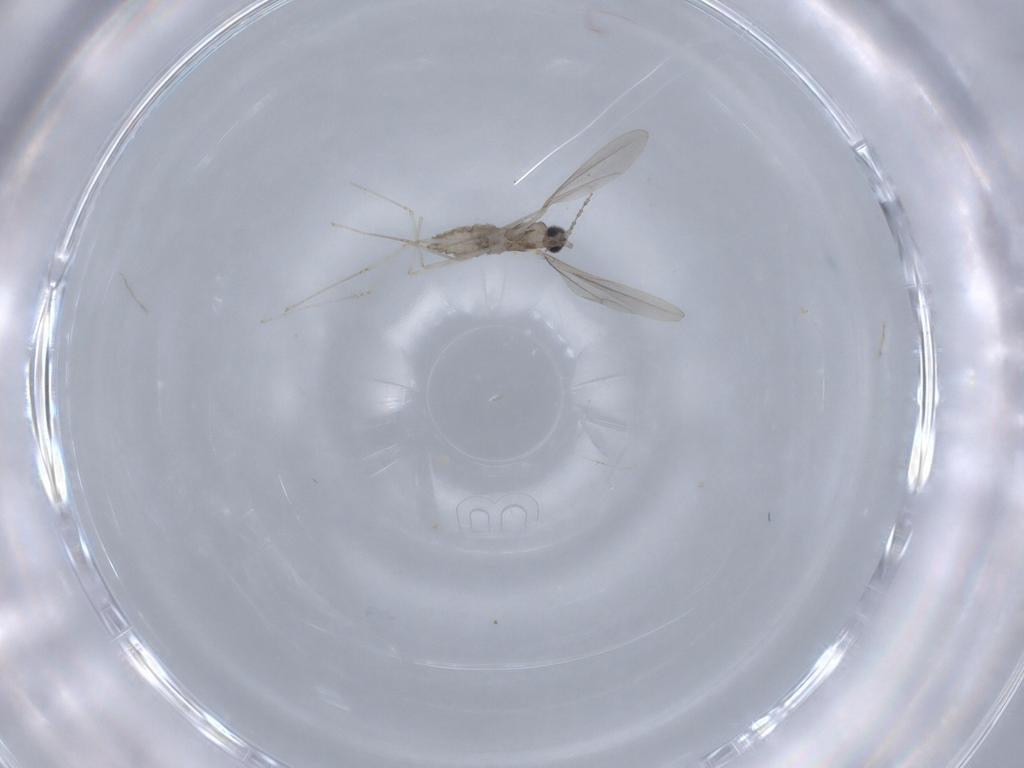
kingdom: Animalia
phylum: Arthropoda
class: Insecta
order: Diptera
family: Cecidomyiidae
